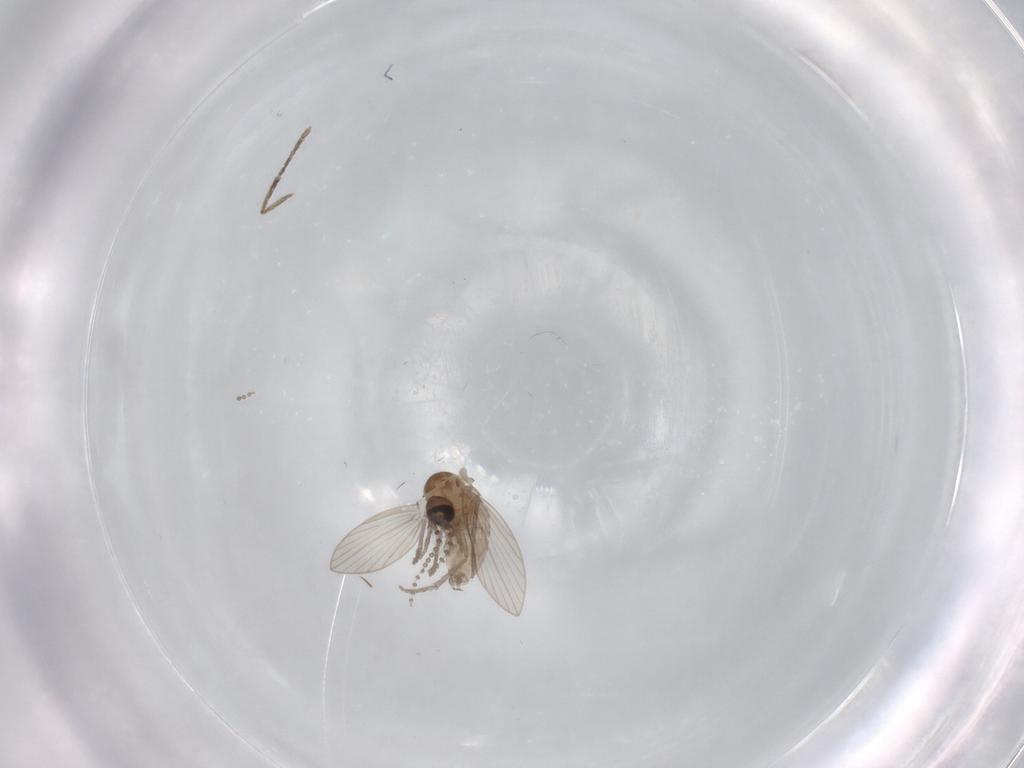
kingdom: Animalia
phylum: Arthropoda
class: Insecta
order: Diptera
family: Psychodidae
